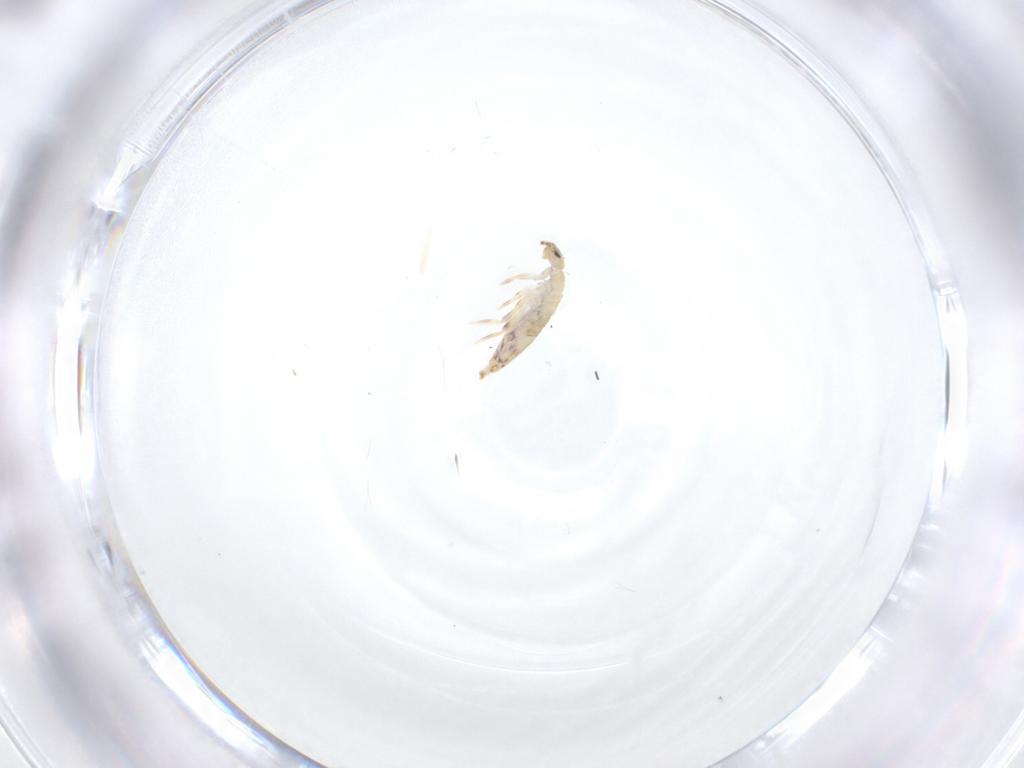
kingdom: Animalia
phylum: Arthropoda
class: Collembola
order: Entomobryomorpha
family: Entomobryidae
